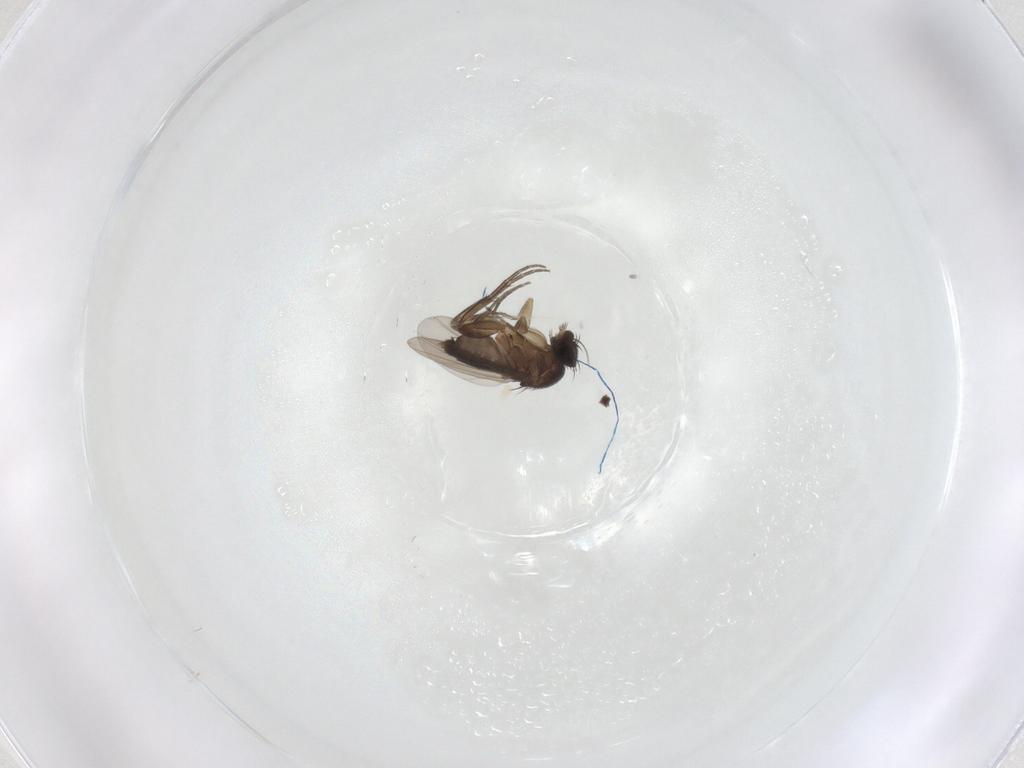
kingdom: Animalia
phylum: Arthropoda
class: Insecta
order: Diptera
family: Phoridae
